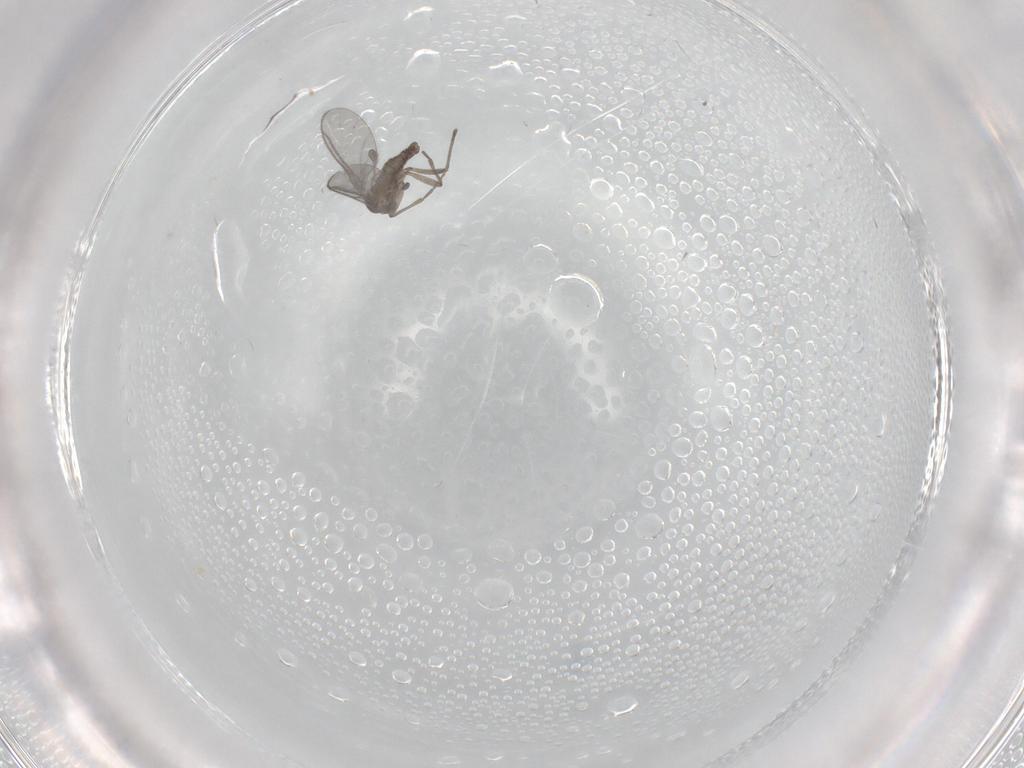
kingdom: Animalia
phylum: Arthropoda
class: Insecta
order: Diptera
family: Sciaridae
